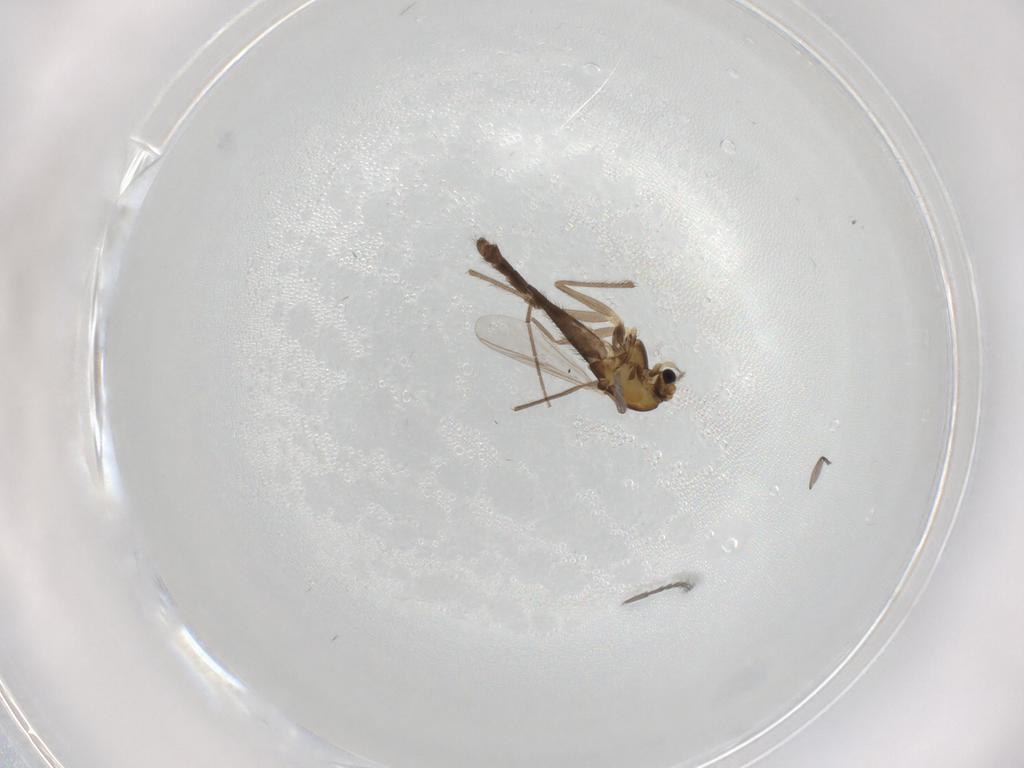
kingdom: Animalia
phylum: Arthropoda
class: Insecta
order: Diptera
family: Chironomidae
